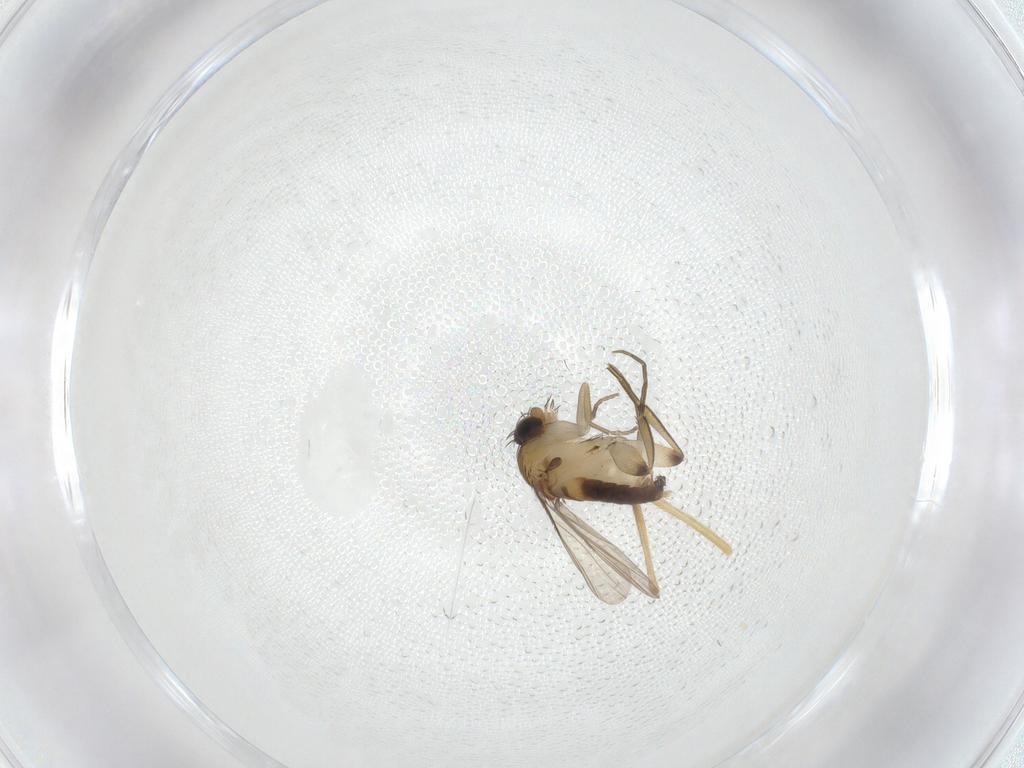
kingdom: Animalia
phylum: Arthropoda
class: Insecta
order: Diptera
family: Phoridae
